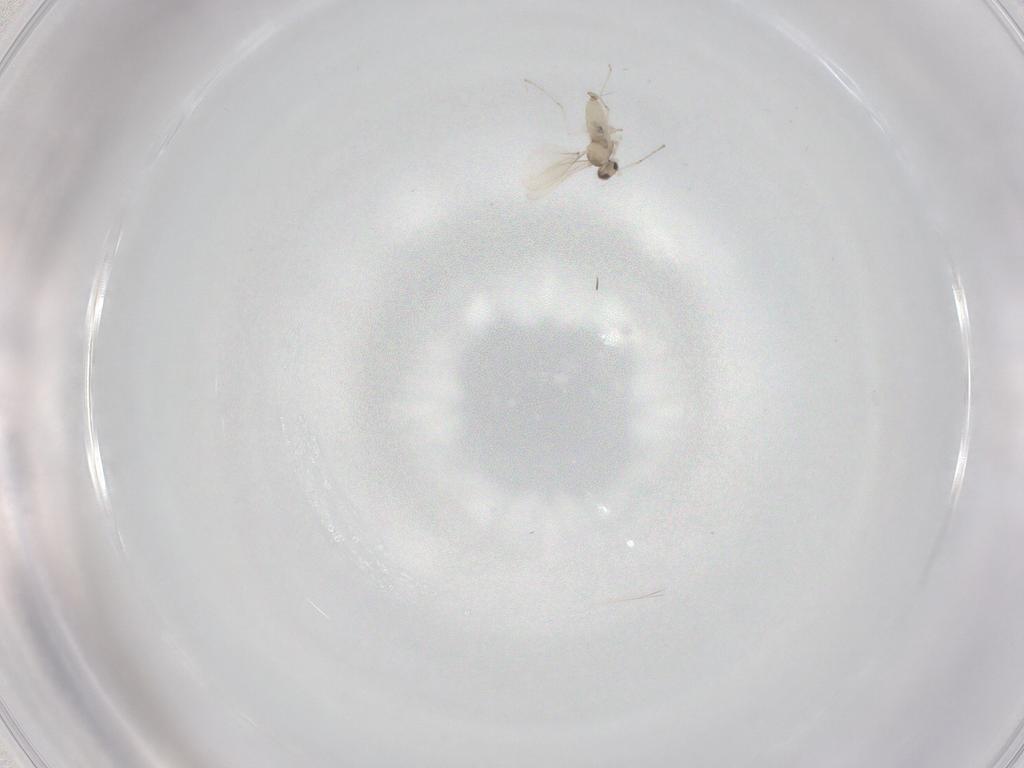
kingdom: Animalia
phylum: Arthropoda
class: Insecta
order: Diptera
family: Cecidomyiidae
